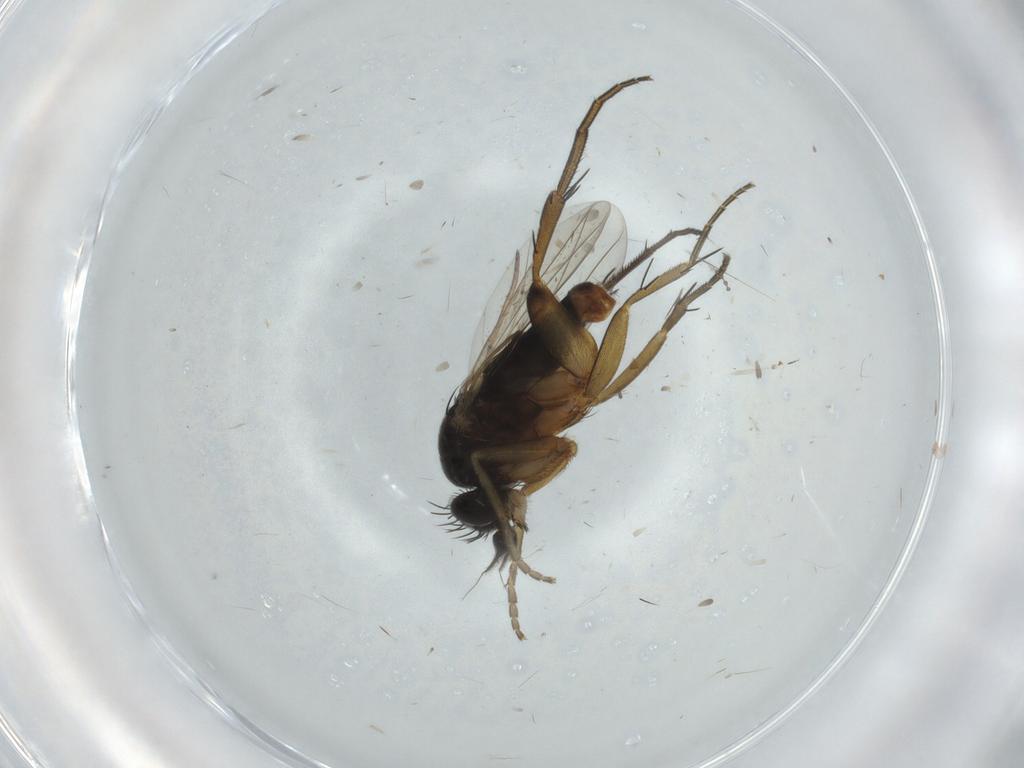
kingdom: Animalia
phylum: Arthropoda
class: Insecta
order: Diptera
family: Phoridae
